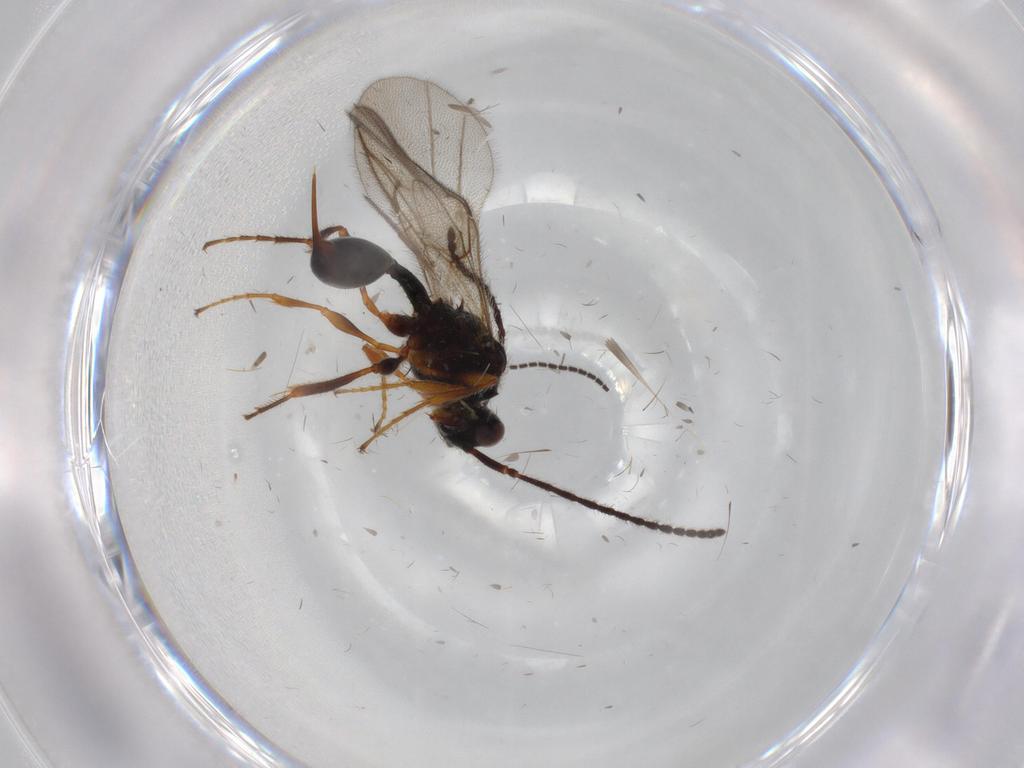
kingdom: Animalia
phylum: Arthropoda
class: Insecta
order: Hymenoptera
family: Diapriidae
